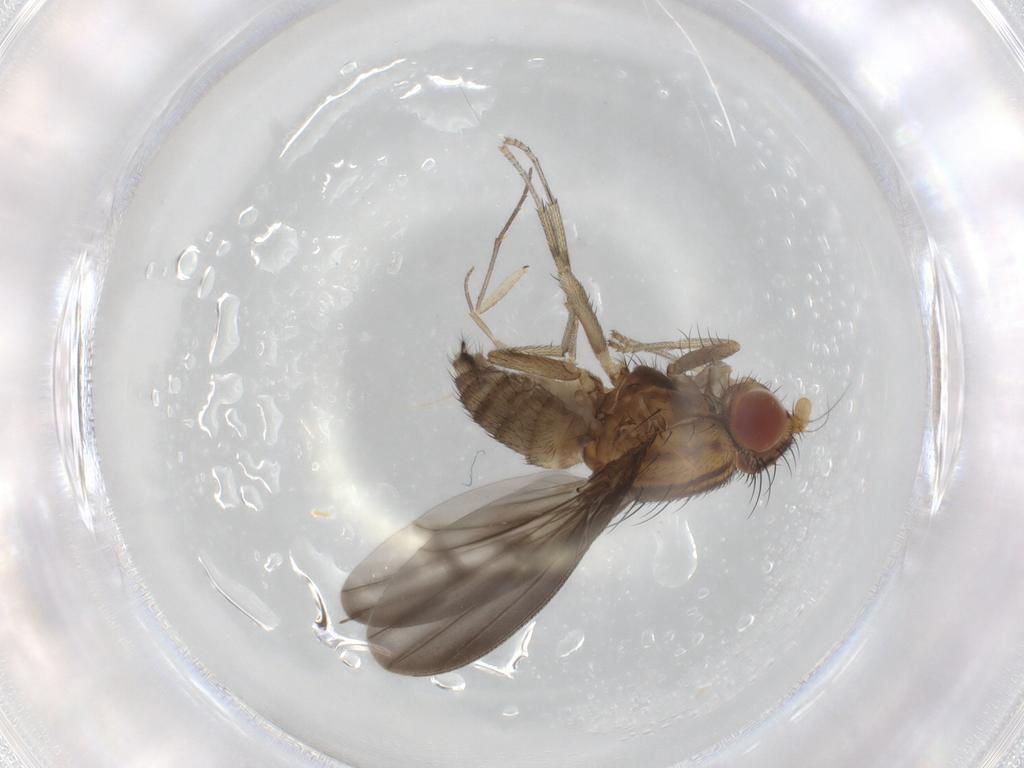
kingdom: Animalia
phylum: Arthropoda
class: Insecta
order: Diptera
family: Lauxaniidae
